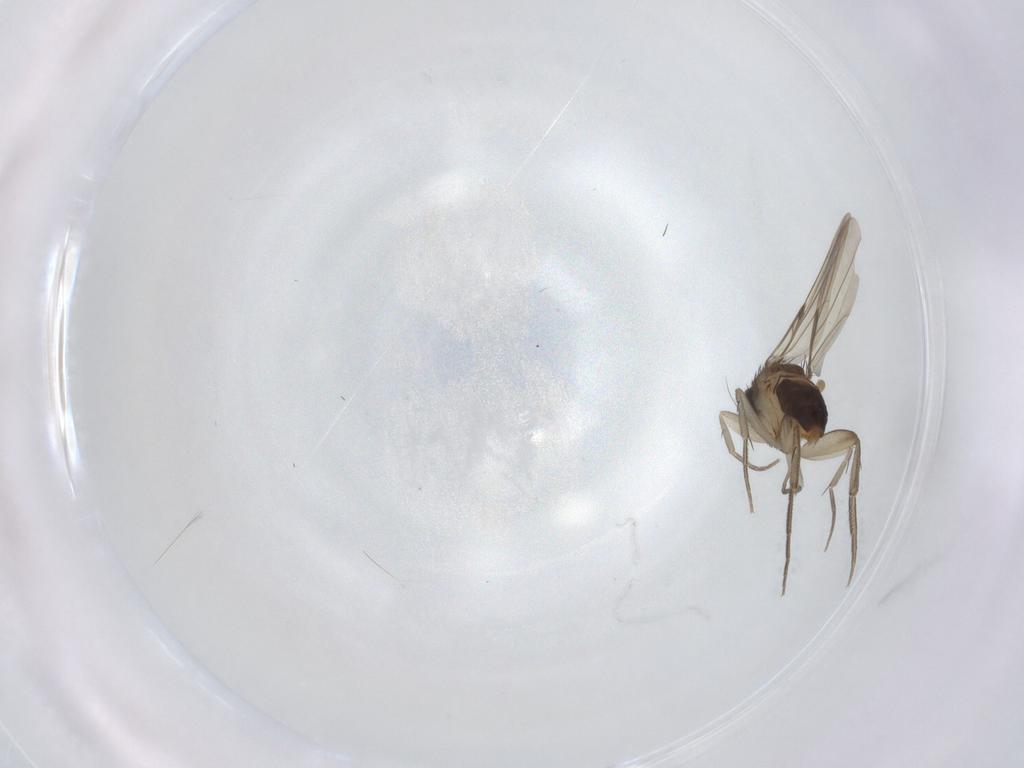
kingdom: Animalia
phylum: Arthropoda
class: Insecta
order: Diptera
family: Phoridae
